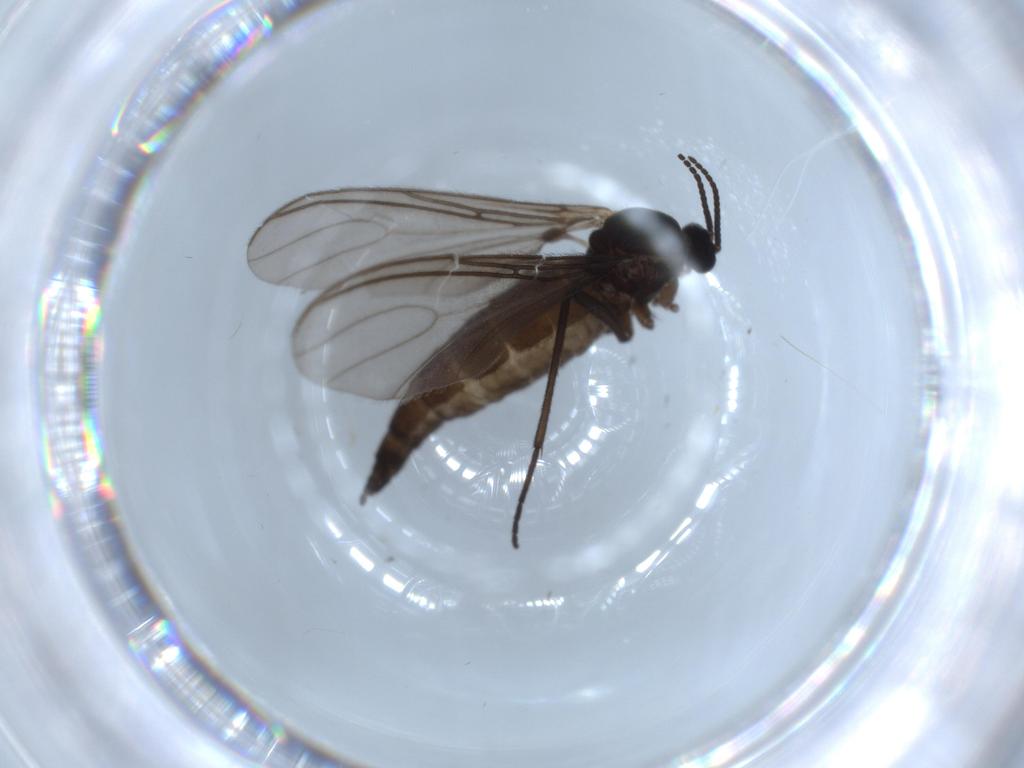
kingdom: Animalia
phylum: Arthropoda
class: Insecta
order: Diptera
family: Sciaridae
